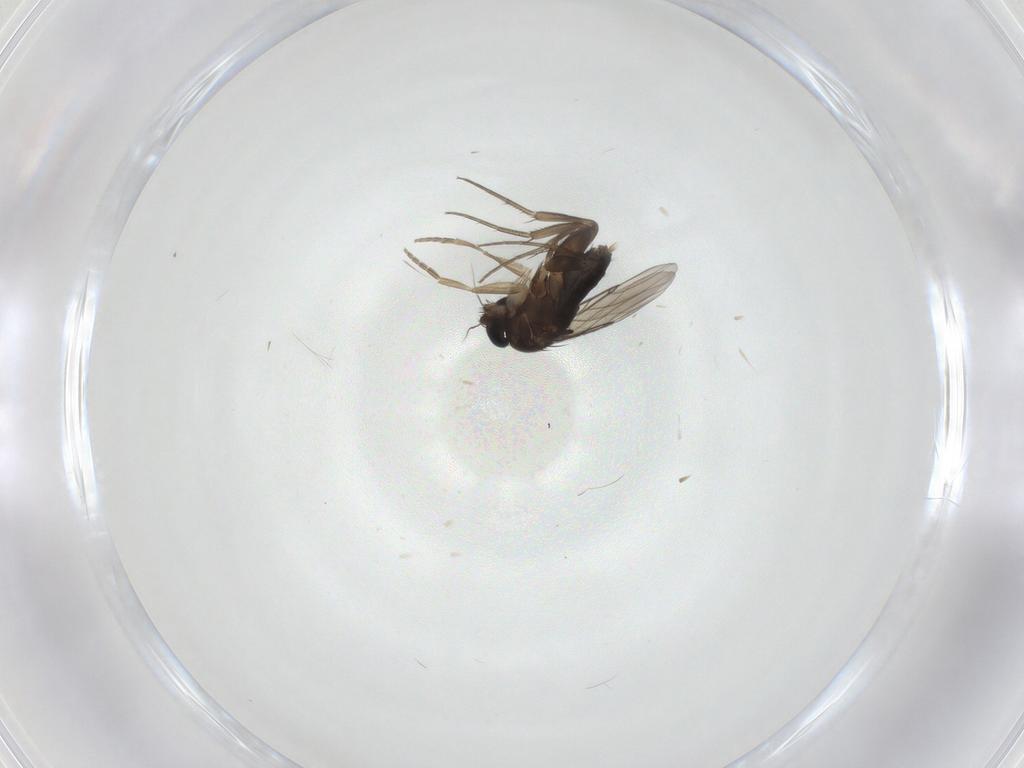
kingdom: Animalia
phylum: Arthropoda
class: Insecta
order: Diptera
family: Phoridae
